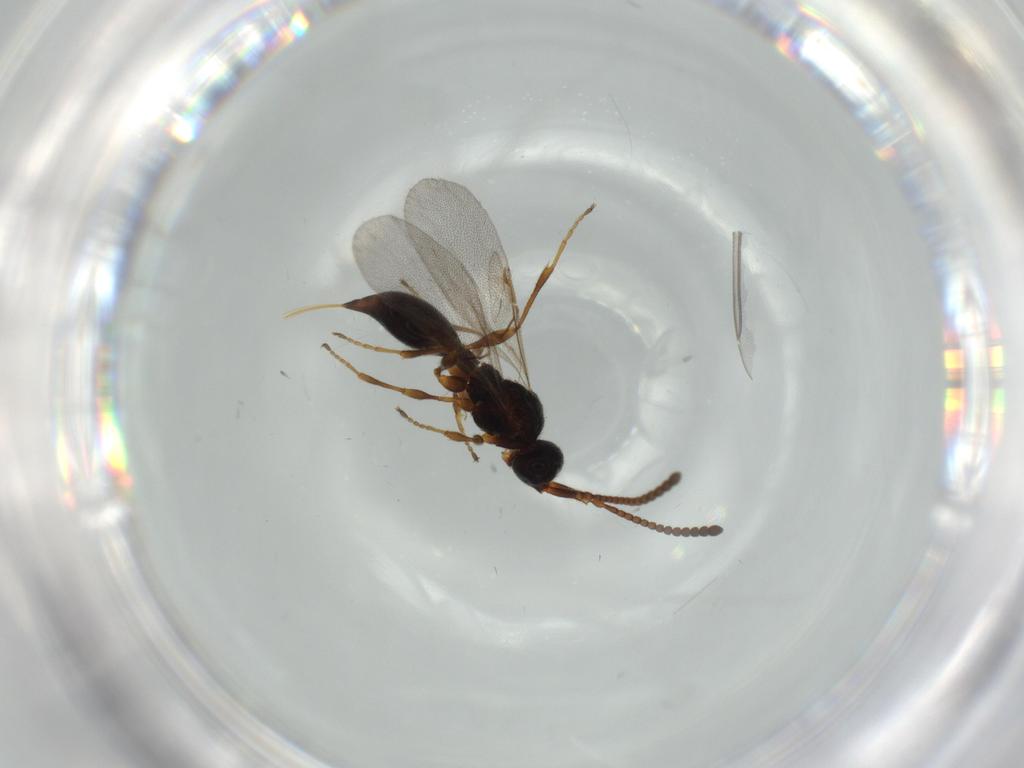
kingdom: Animalia
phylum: Arthropoda
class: Insecta
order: Hymenoptera
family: Diapriidae
